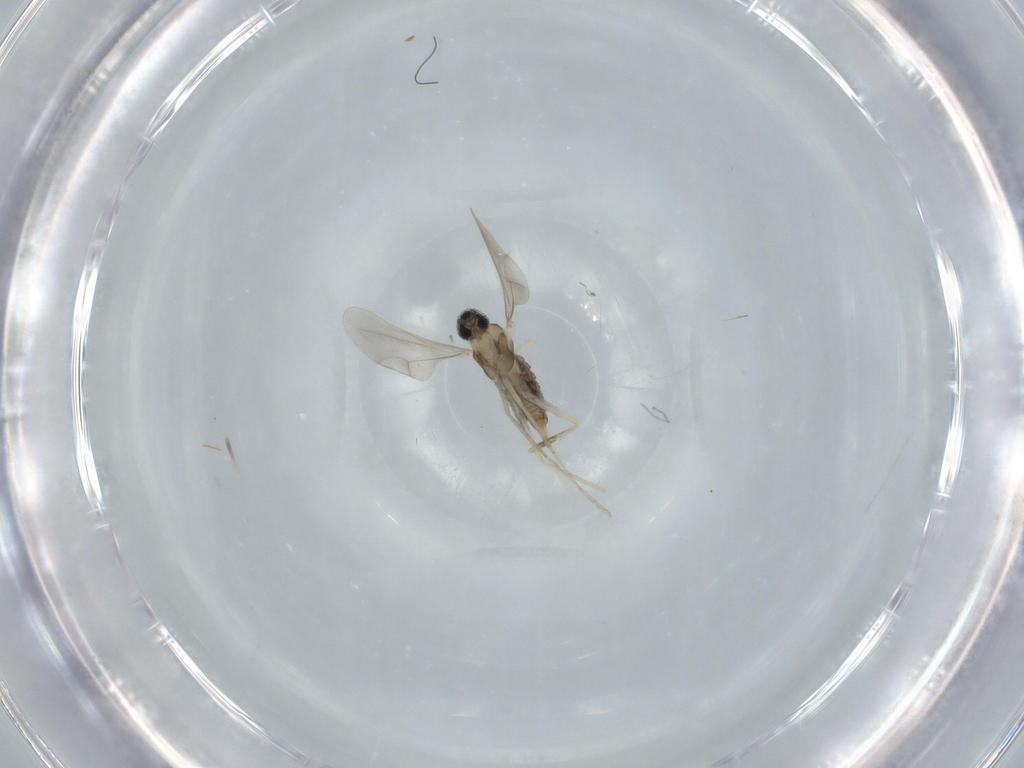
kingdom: Animalia
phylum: Arthropoda
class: Insecta
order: Diptera
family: Cecidomyiidae
